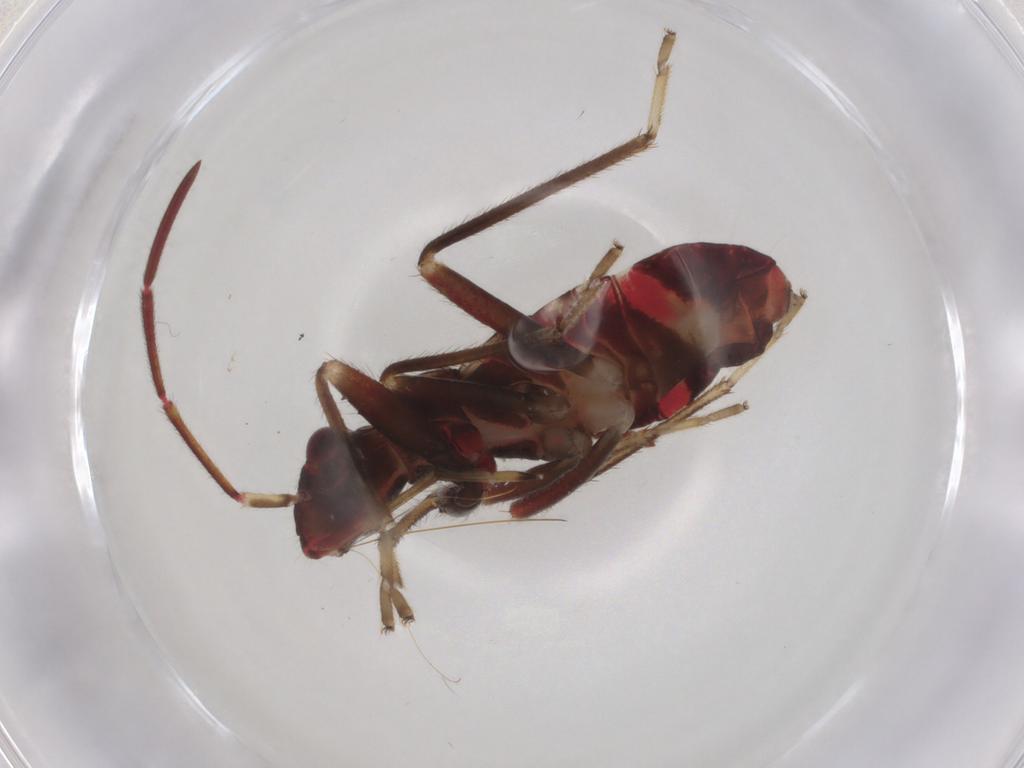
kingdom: Animalia
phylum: Arthropoda
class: Insecta
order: Hemiptera
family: Rhyparochromidae
